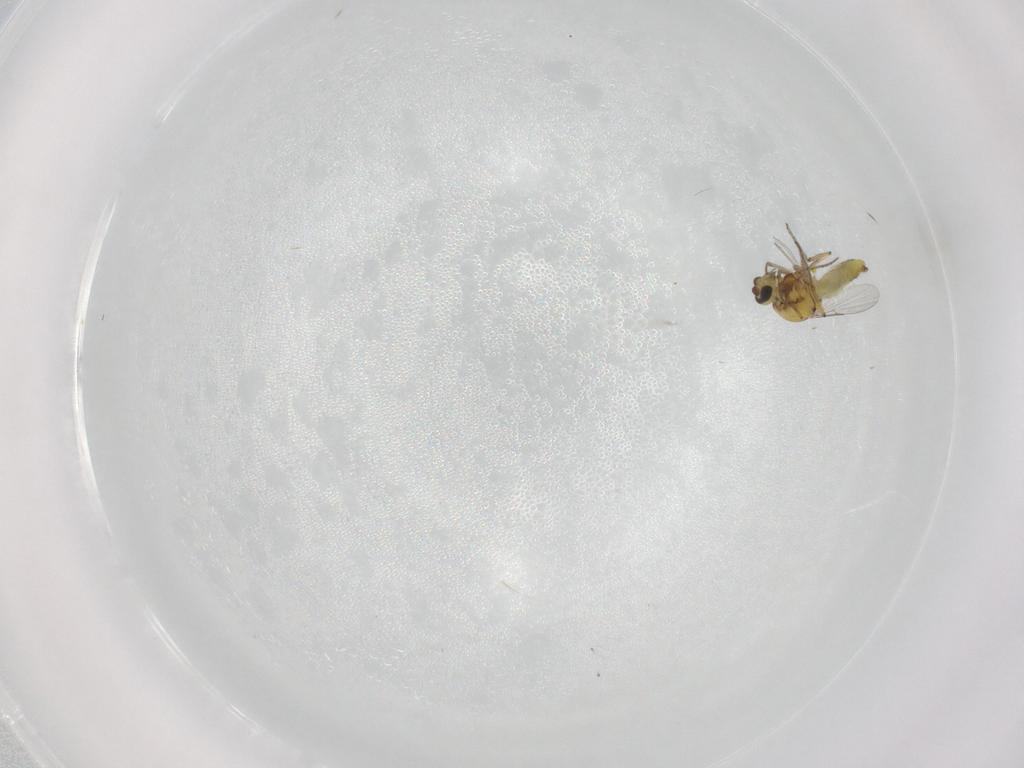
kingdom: Animalia
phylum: Arthropoda
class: Insecta
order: Diptera
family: Ceratopogonidae
